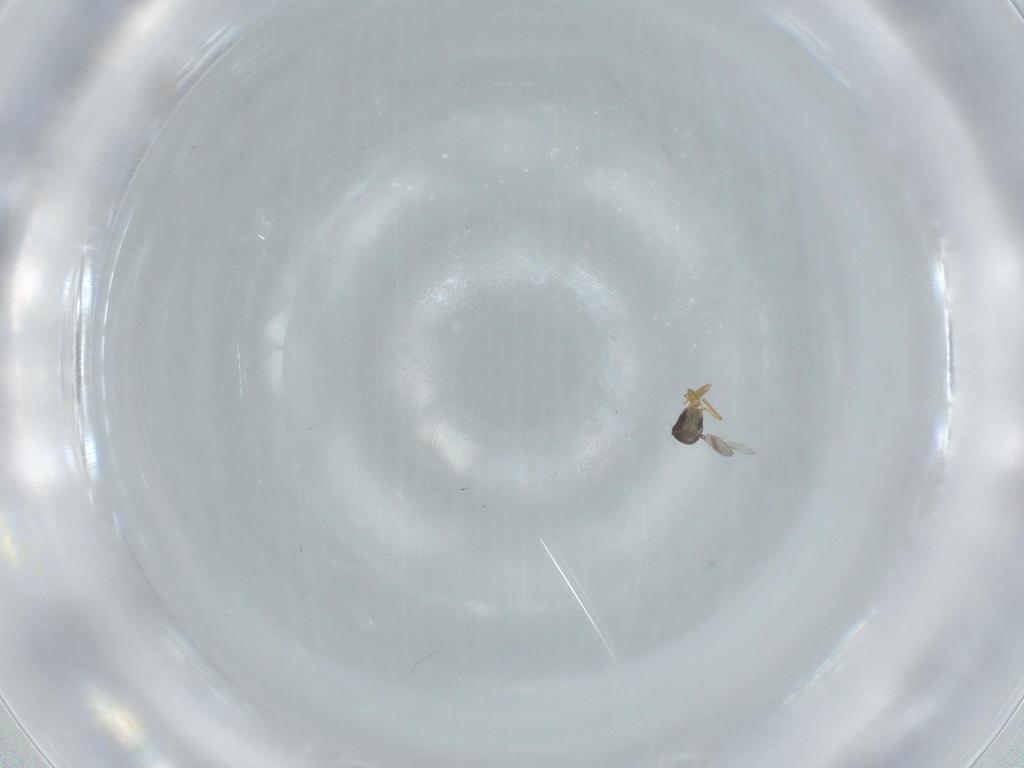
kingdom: Animalia
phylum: Arthropoda
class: Insecta
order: Hymenoptera
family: Scelionidae
